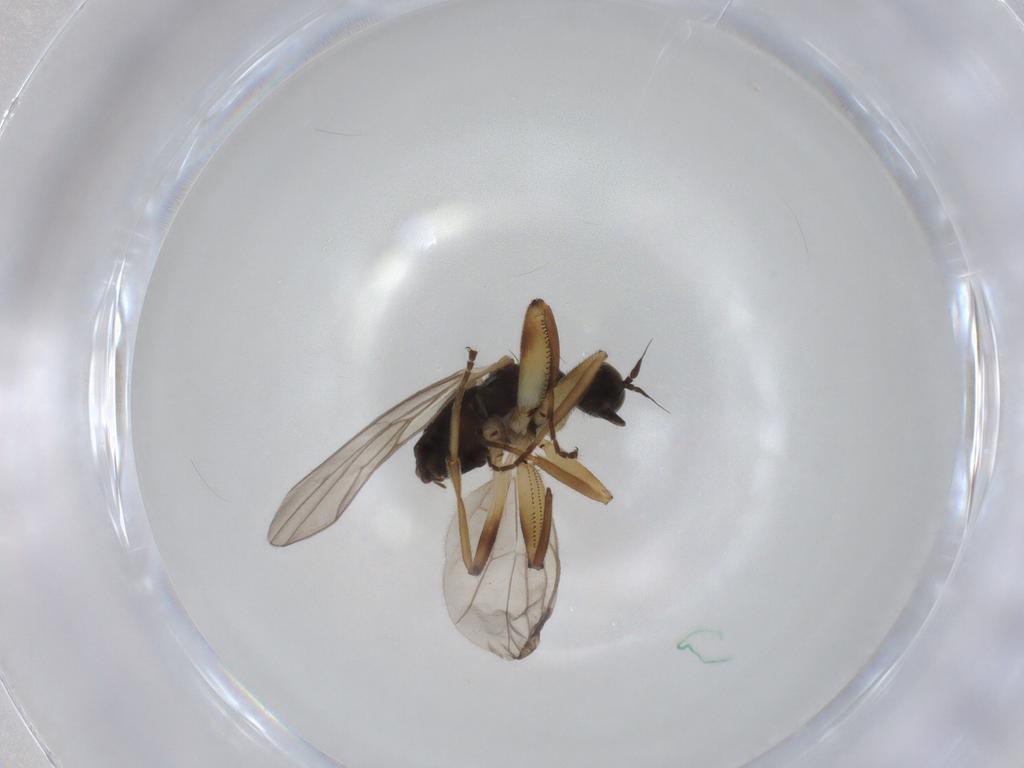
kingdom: Animalia
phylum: Arthropoda
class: Insecta
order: Diptera
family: Hybotidae
